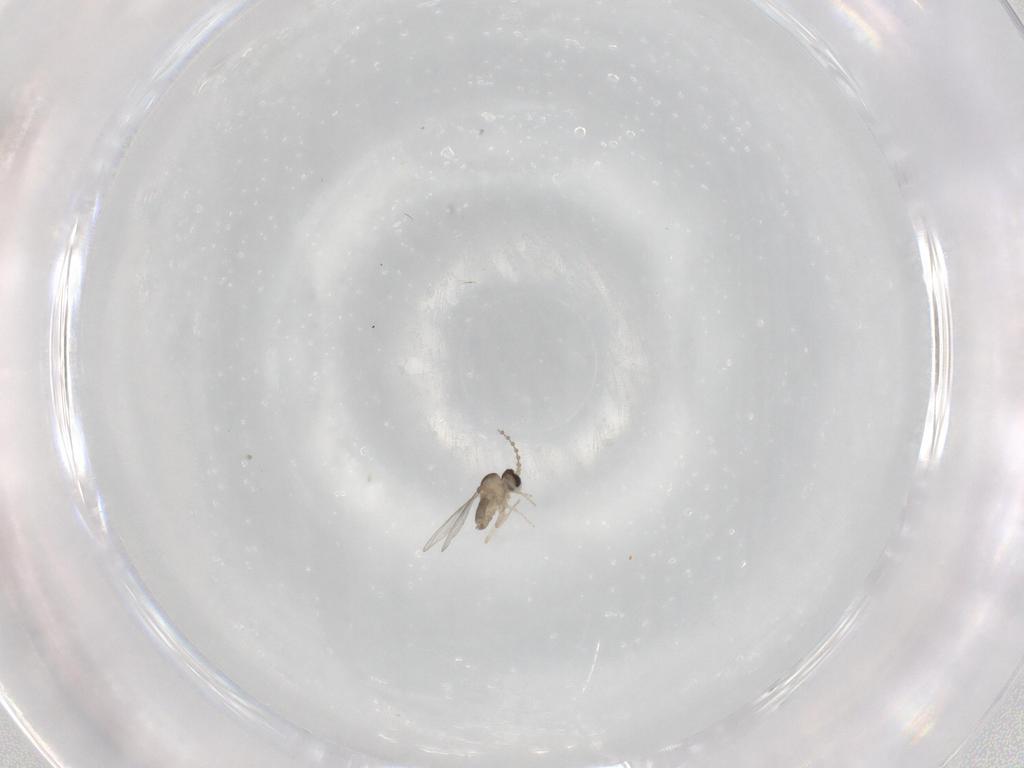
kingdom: Animalia
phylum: Arthropoda
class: Insecta
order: Diptera
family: Cecidomyiidae
